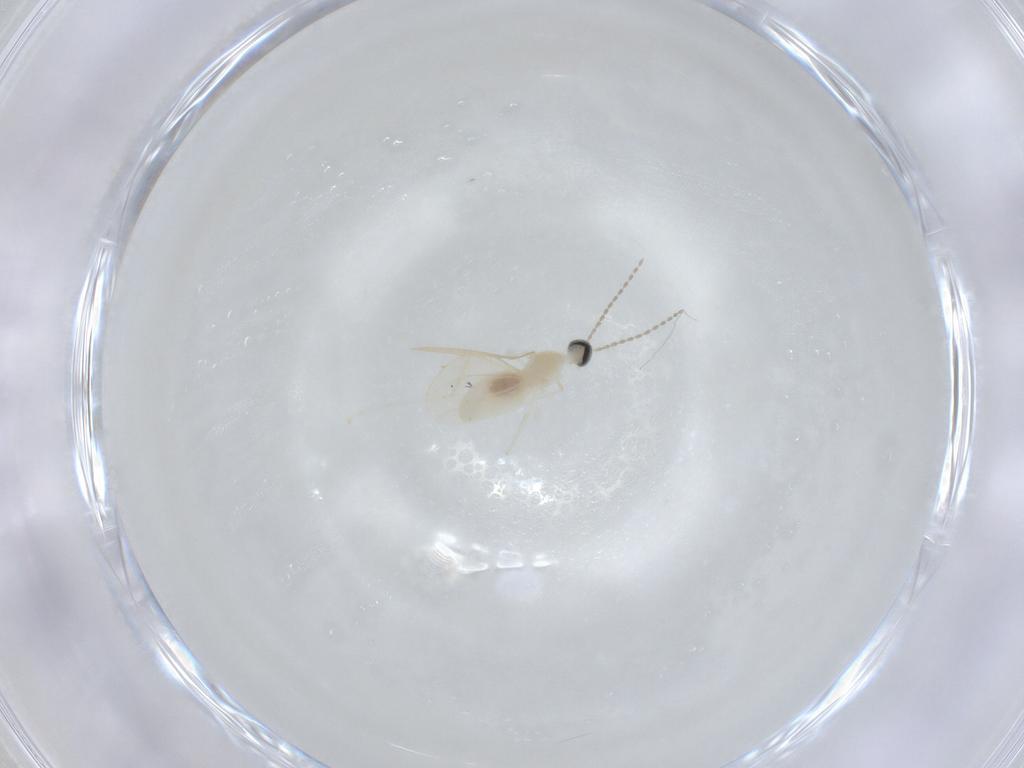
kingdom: Animalia
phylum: Arthropoda
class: Insecta
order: Diptera
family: Cecidomyiidae
